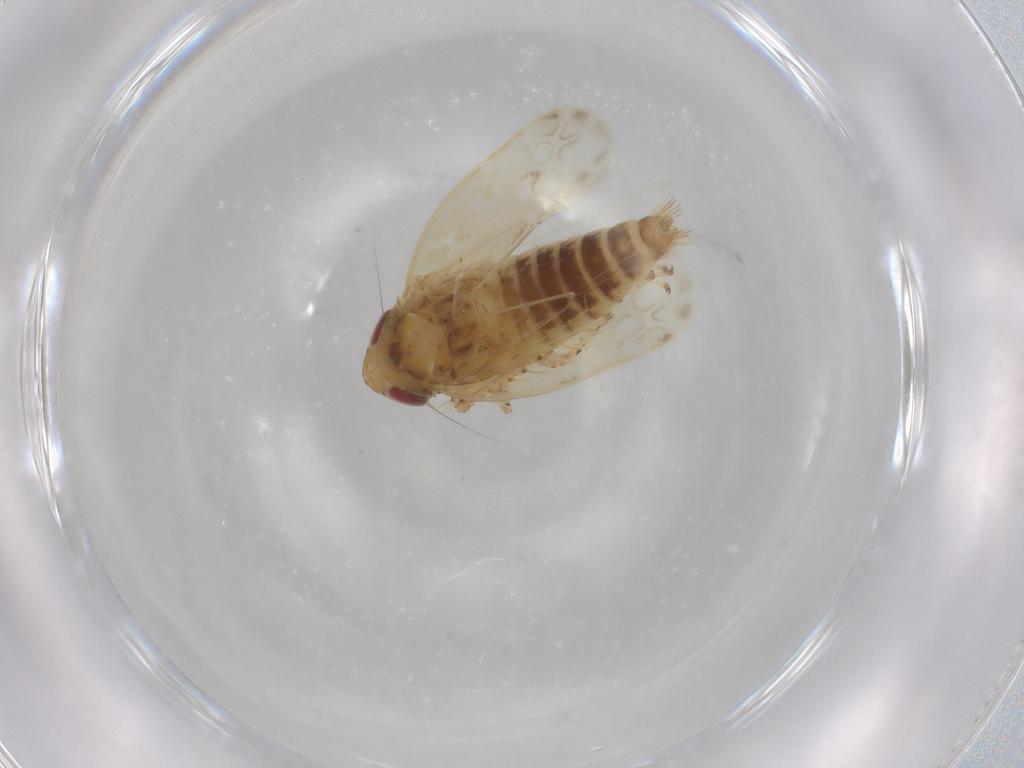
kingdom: Animalia
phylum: Arthropoda
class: Insecta
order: Hemiptera
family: Cicadellidae
